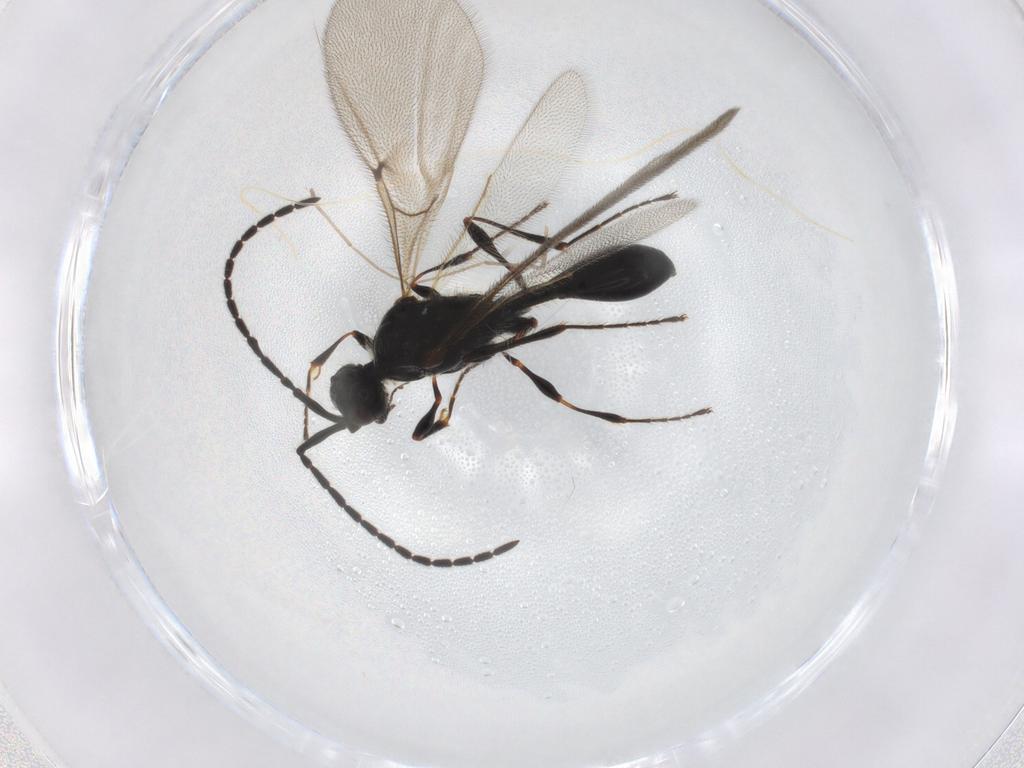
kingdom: Animalia
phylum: Arthropoda
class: Insecta
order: Hymenoptera
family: Diapriidae
